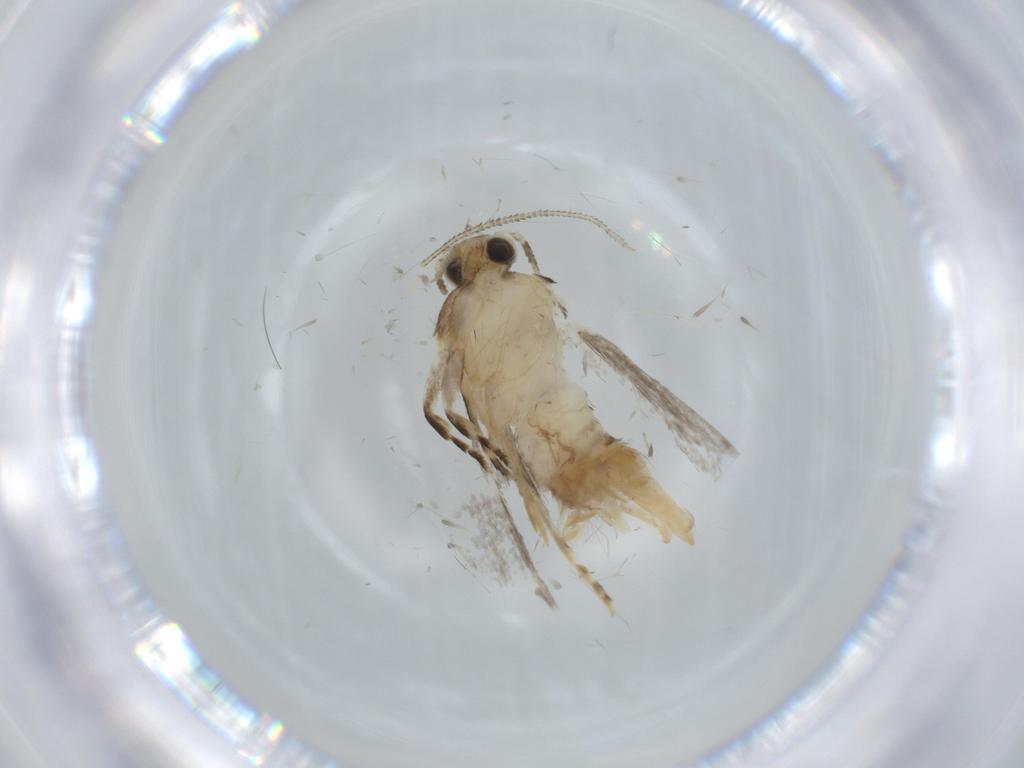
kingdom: Animalia
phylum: Arthropoda
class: Insecta
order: Lepidoptera
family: Tineidae
